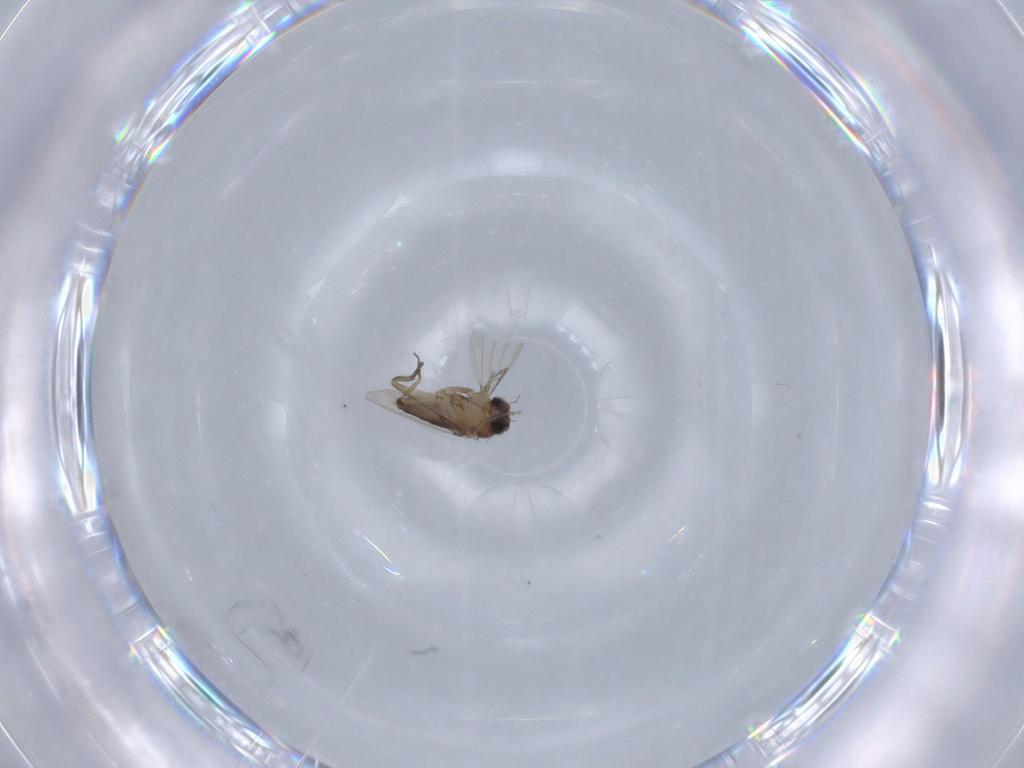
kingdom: Animalia
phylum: Arthropoda
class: Insecta
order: Diptera
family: Phoridae
